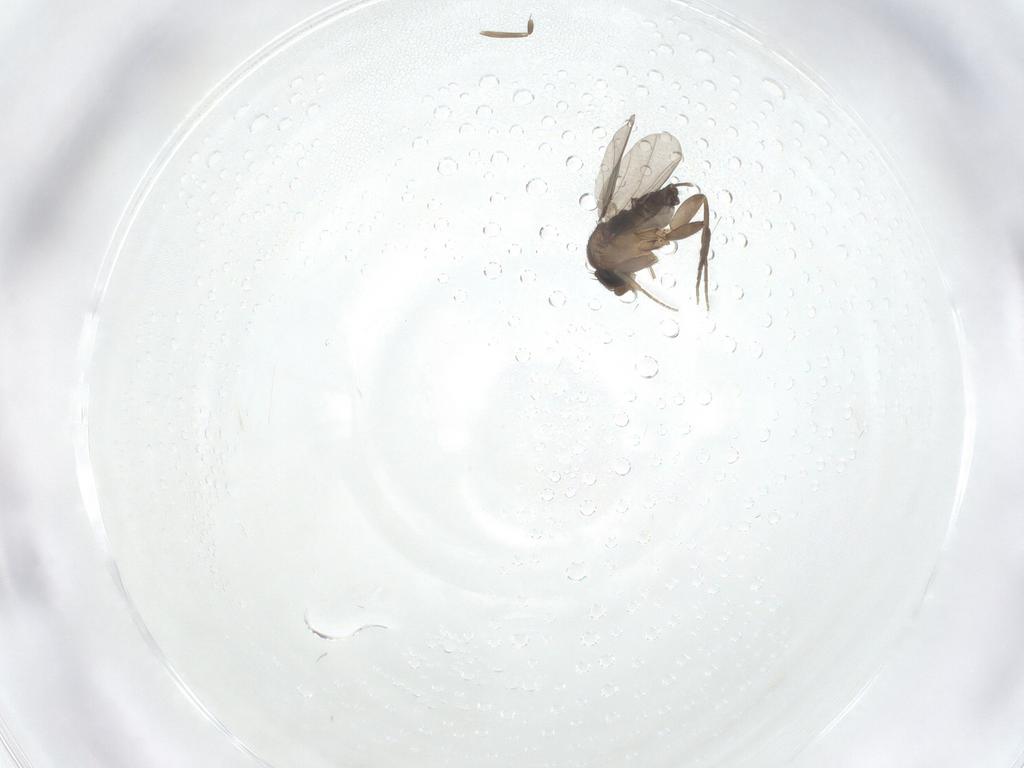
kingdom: Animalia
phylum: Arthropoda
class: Insecta
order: Diptera
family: Phoridae
